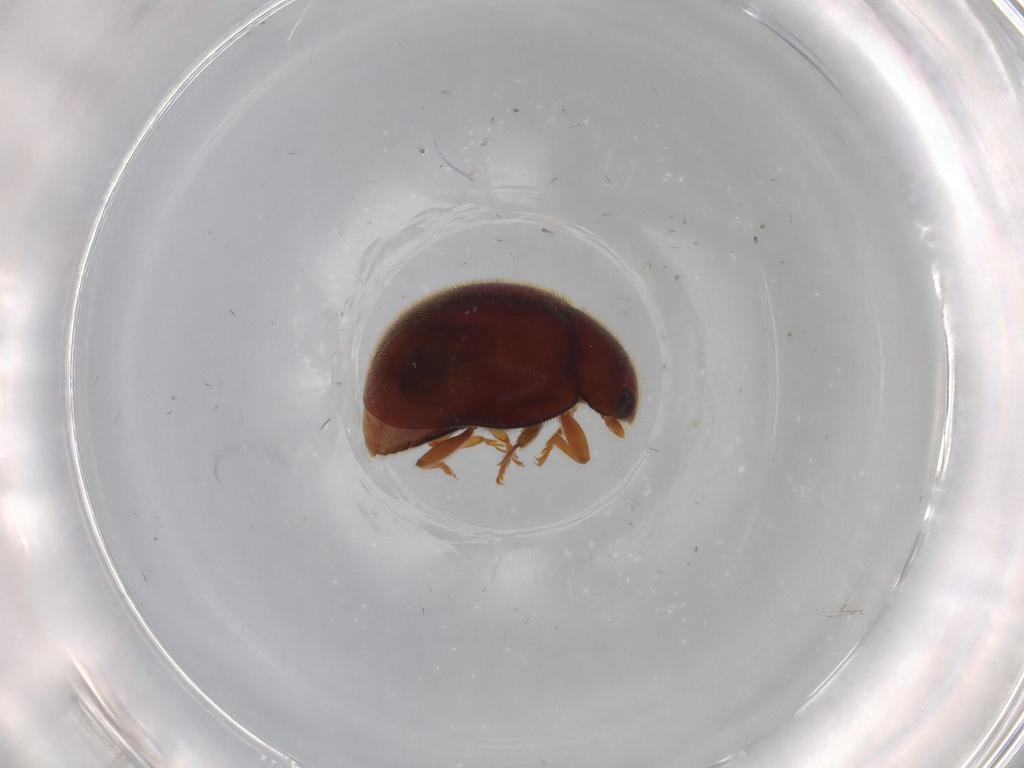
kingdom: Animalia
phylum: Arthropoda
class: Insecta
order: Coleoptera
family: Coccinellidae
